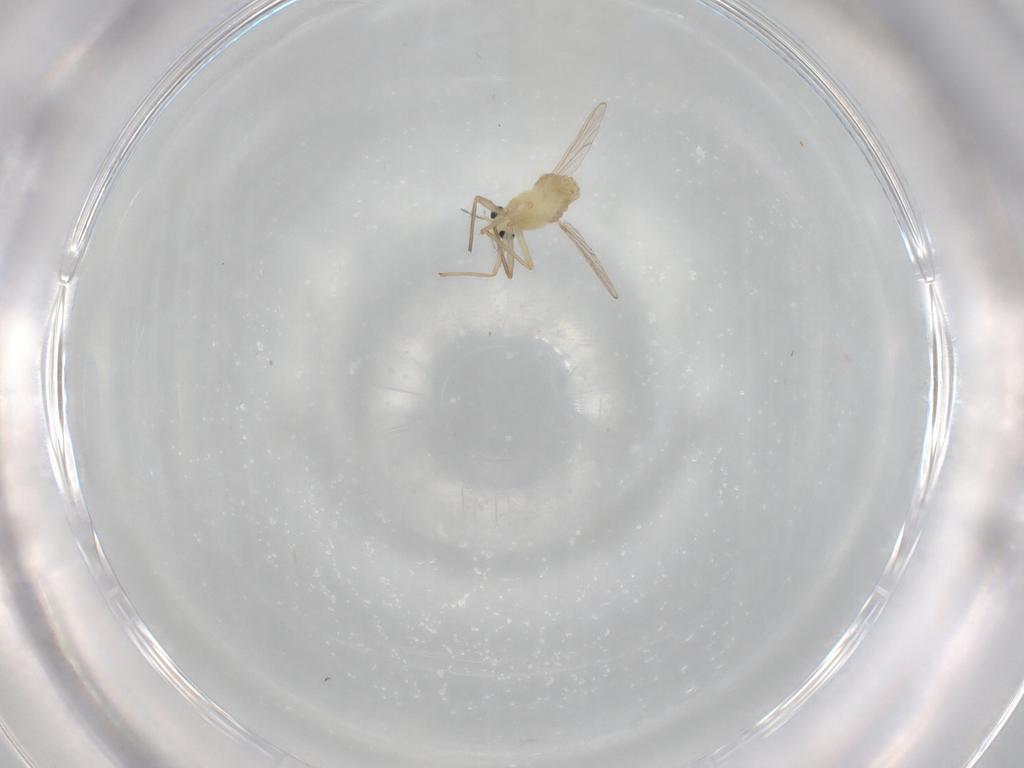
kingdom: Animalia
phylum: Arthropoda
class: Insecta
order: Diptera
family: Chironomidae
